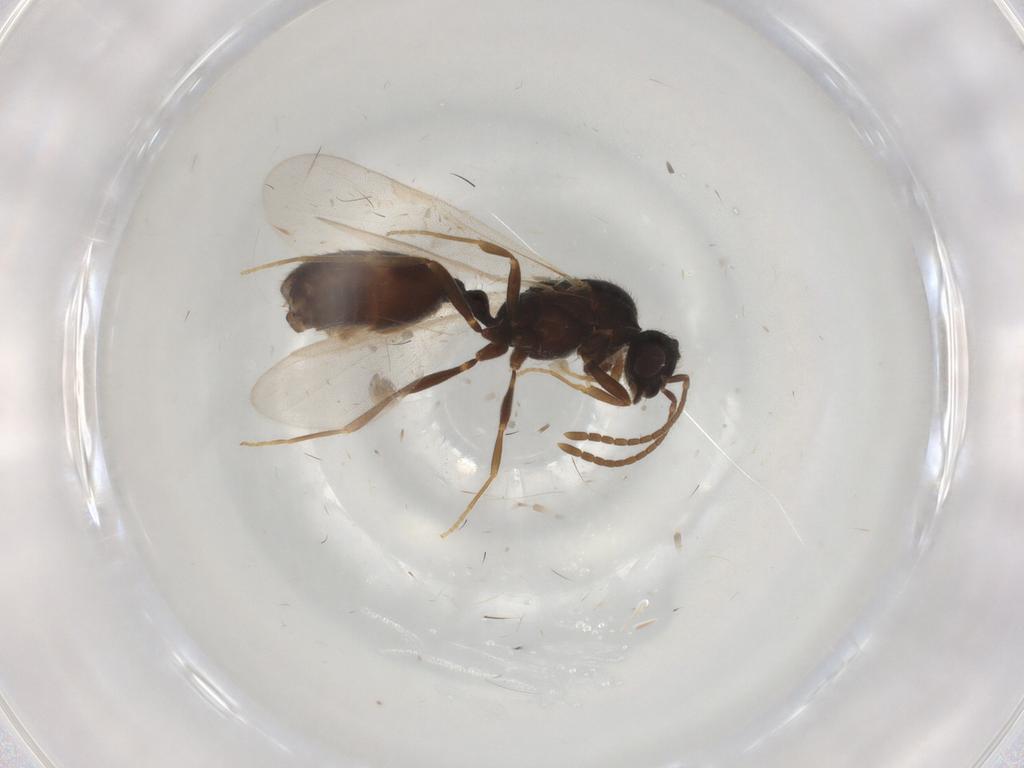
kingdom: Animalia
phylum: Arthropoda
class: Insecta
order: Hymenoptera
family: Formicidae
